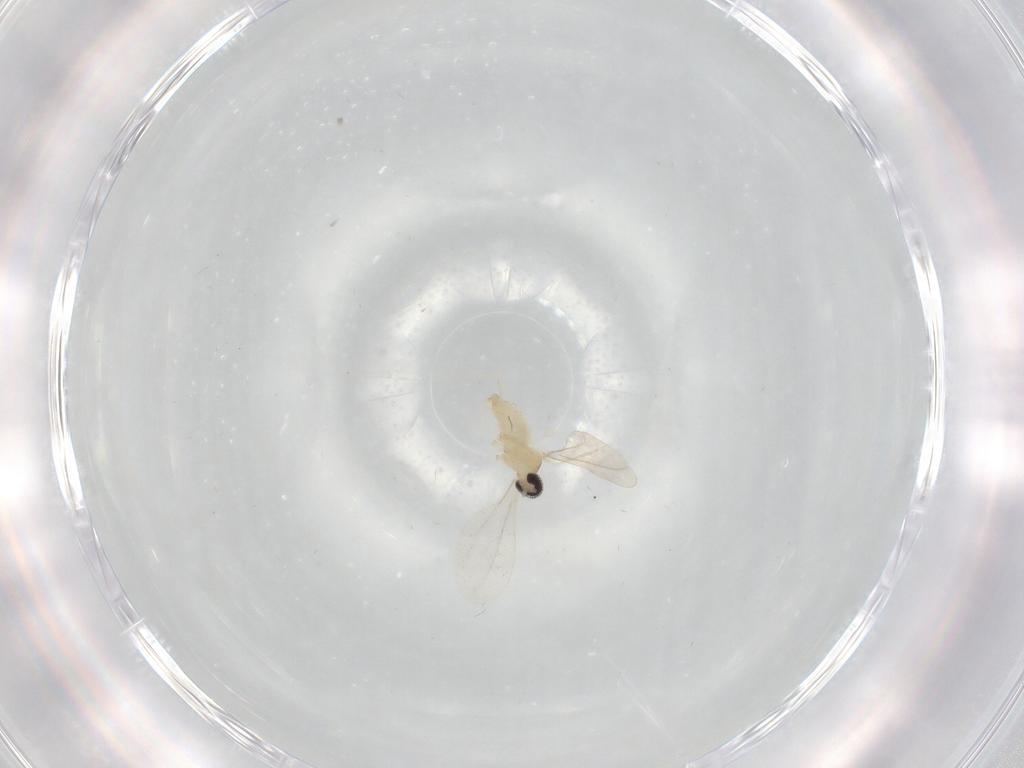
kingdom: Animalia
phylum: Arthropoda
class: Insecta
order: Diptera
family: Cecidomyiidae
